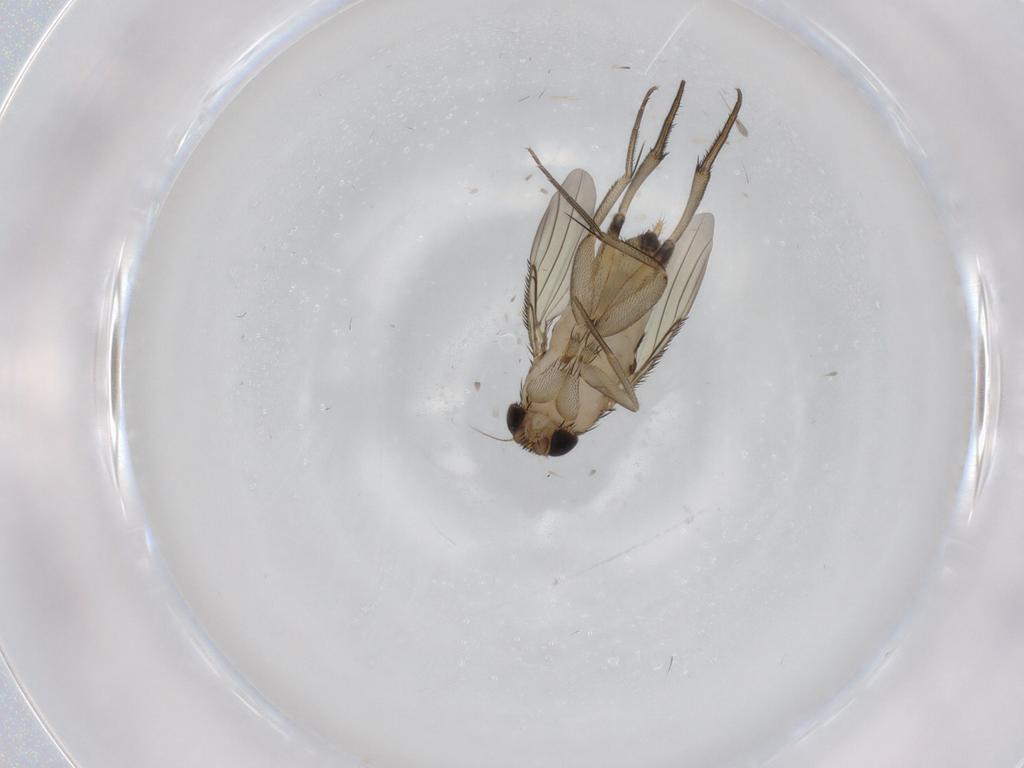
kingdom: Animalia
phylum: Arthropoda
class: Insecta
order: Diptera
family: Phoridae
